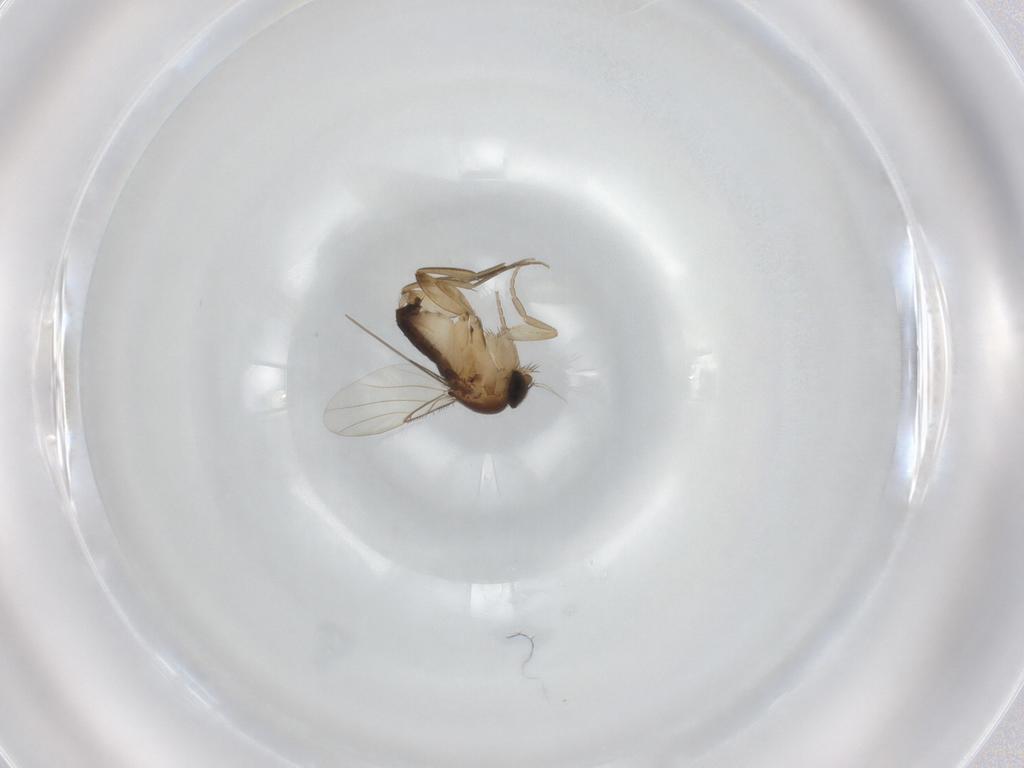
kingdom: Animalia
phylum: Arthropoda
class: Insecta
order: Diptera
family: Phoridae
